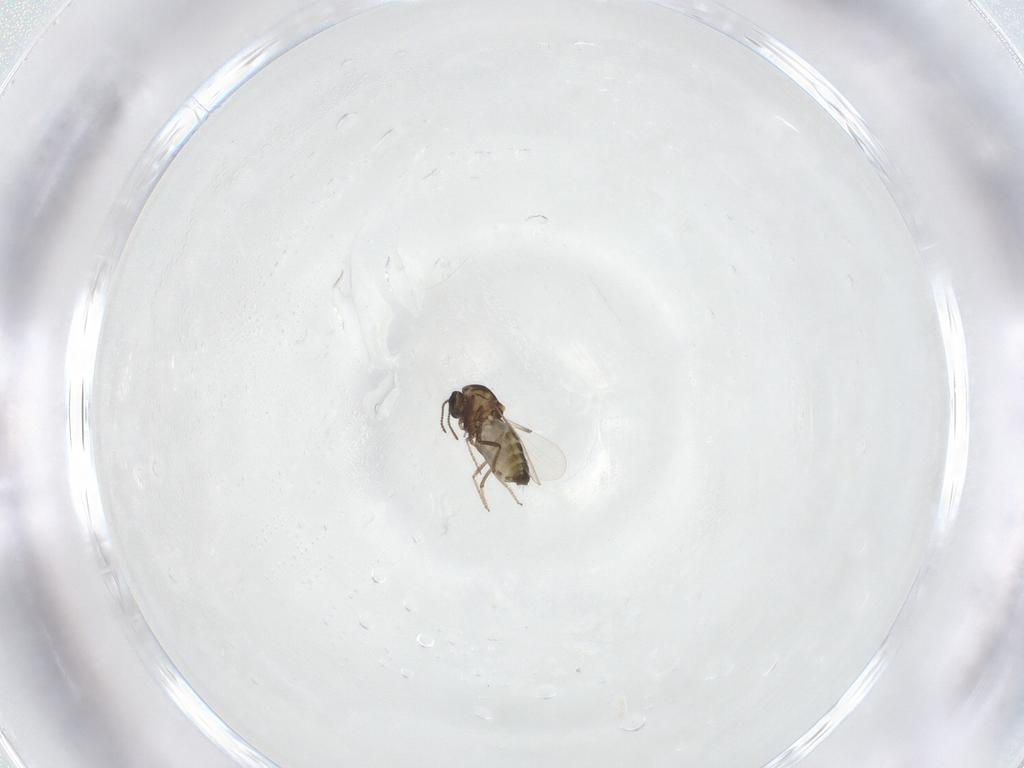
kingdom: Animalia
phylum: Arthropoda
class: Insecta
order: Diptera
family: Ceratopogonidae
